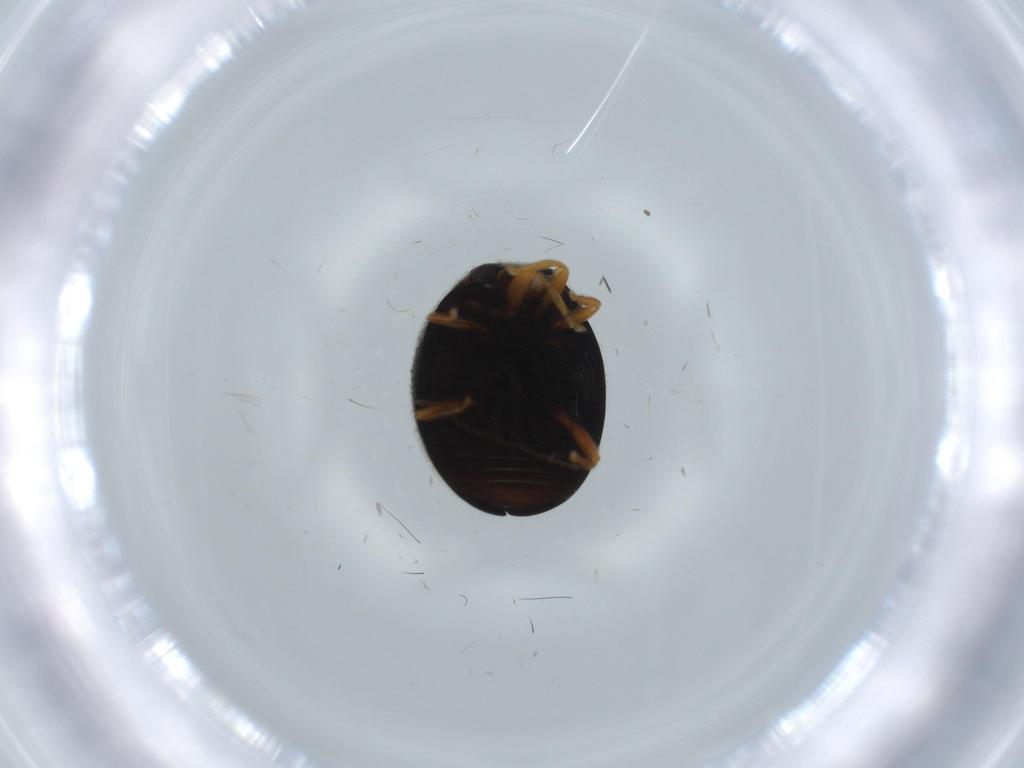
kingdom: Animalia
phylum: Arthropoda
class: Insecta
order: Coleoptera
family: Coccinellidae
